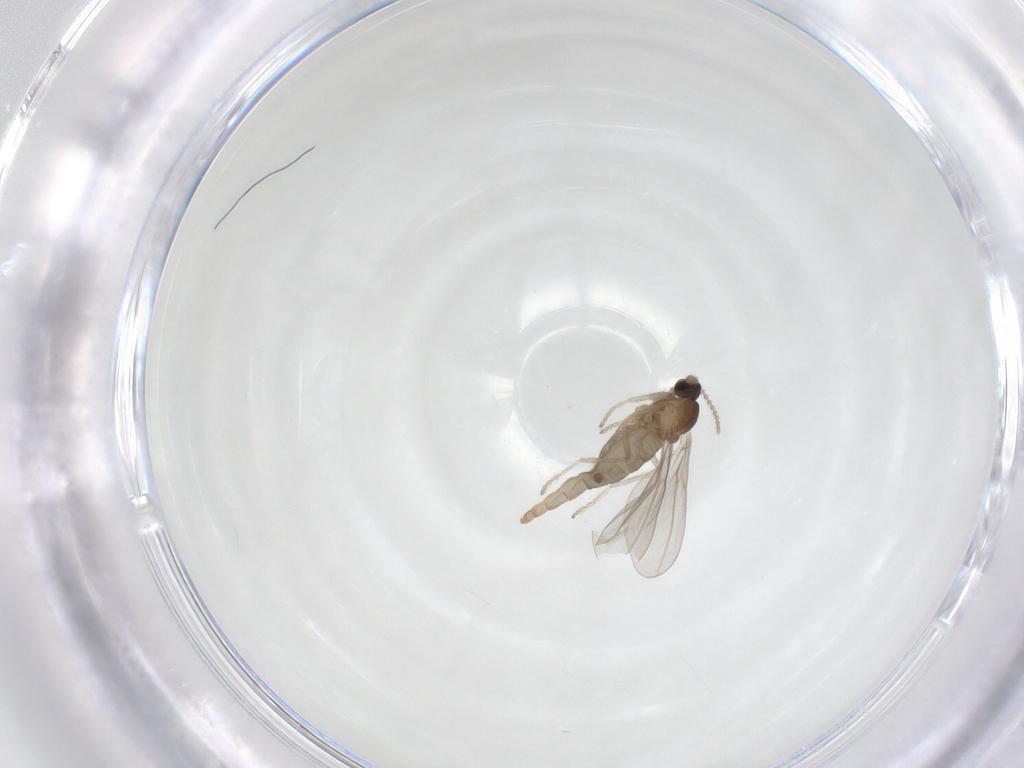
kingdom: Animalia
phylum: Arthropoda
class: Insecta
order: Diptera
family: Cecidomyiidae
